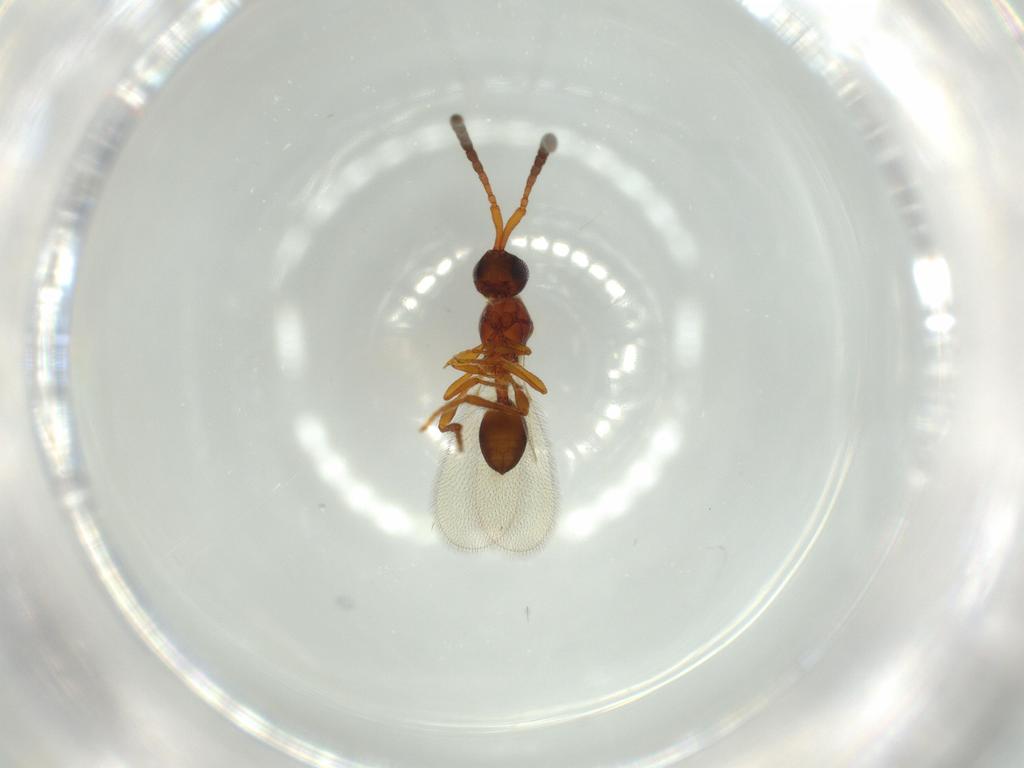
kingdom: Animalia
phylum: Arthropoda
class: Insecta
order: Hymenoptera
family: Diapriidae
